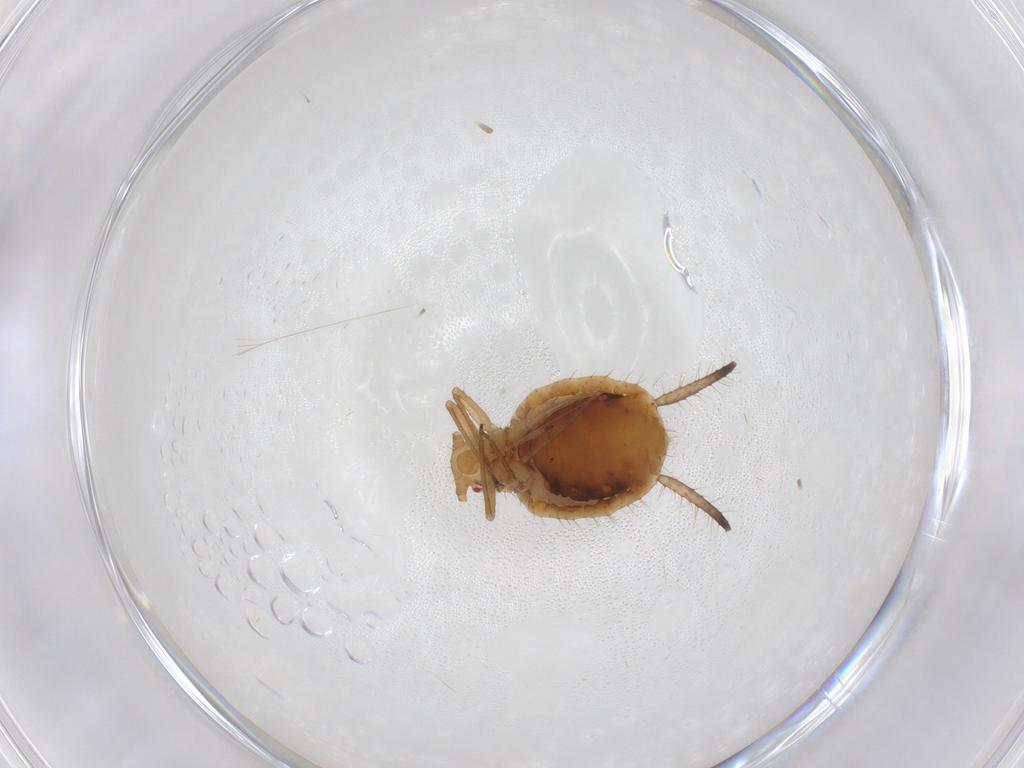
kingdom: Animalia
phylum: Arthropoda
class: Insecta
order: Hemiptera
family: Aphididae
